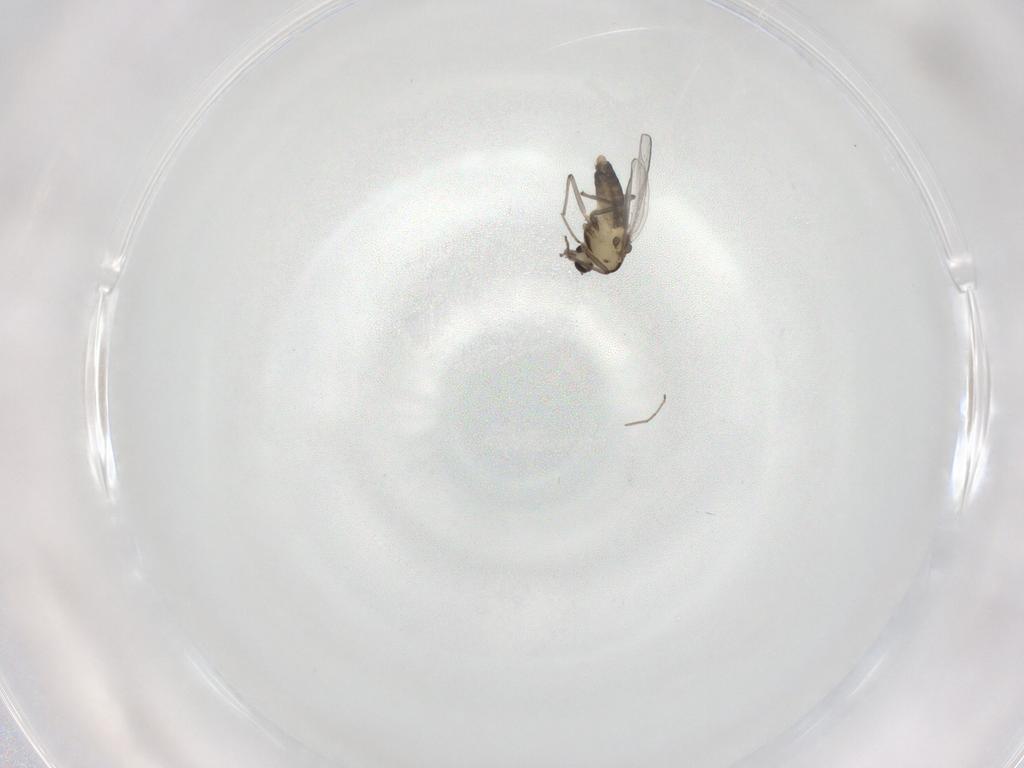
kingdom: Animalia
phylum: Arthropoda
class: Insecta
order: Diptera
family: Chironomidae
